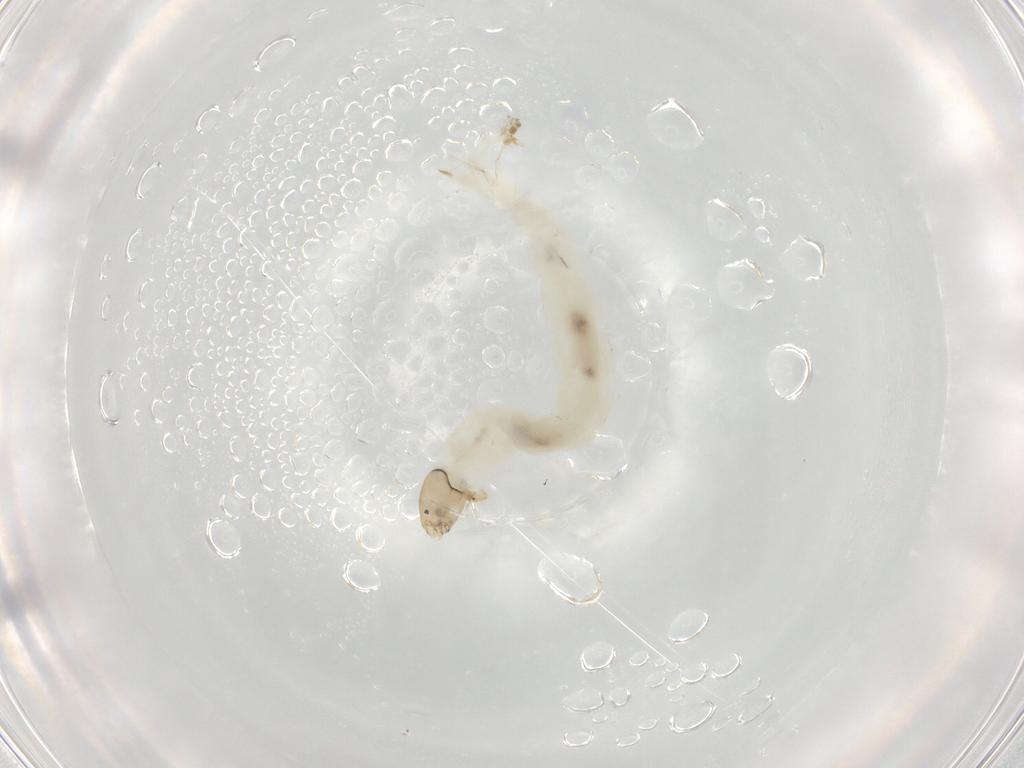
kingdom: Animalia
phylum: Arthropoda
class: Insecta
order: Diptera
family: Chironomidae
